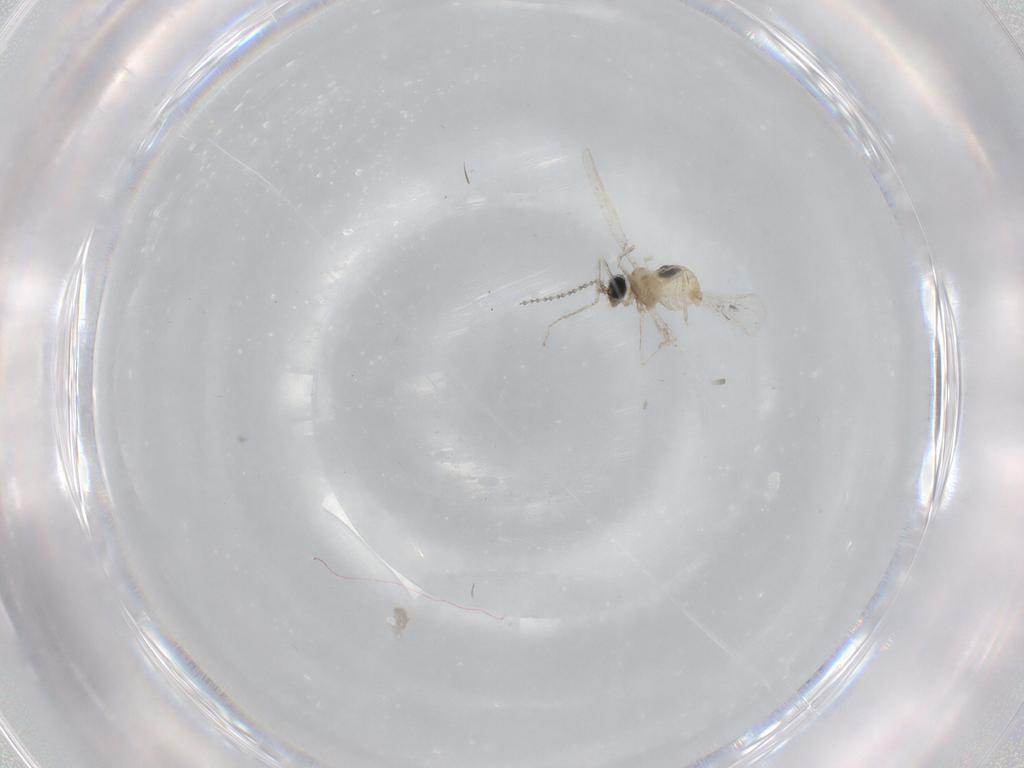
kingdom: Animalia
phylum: Arthropoda
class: Insecta
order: Diptera
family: Cecidomyiidae
